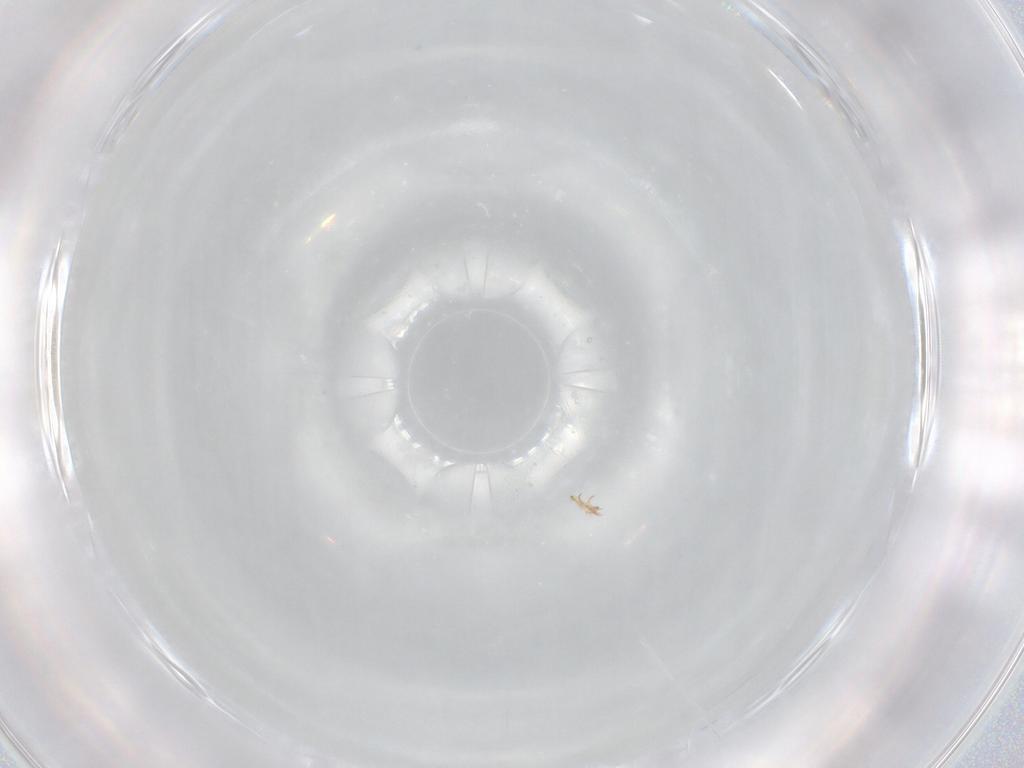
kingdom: Animalia
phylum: Arthropoda
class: Arachnida
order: Sarcoptiformes
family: Humerobatidae
